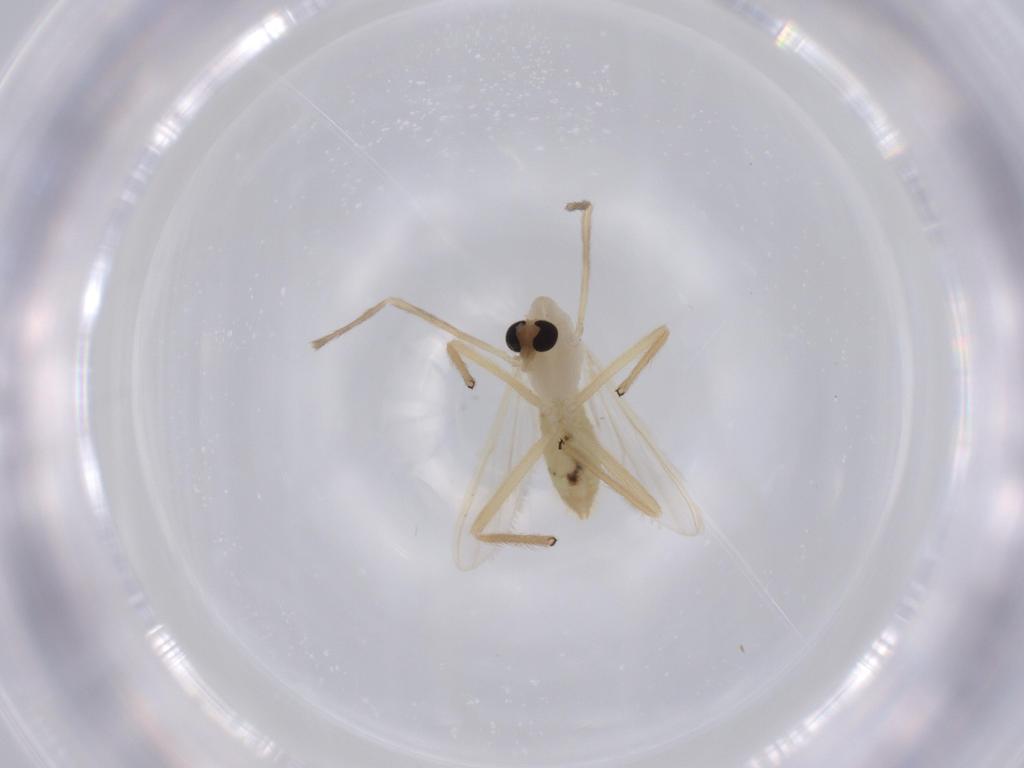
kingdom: Animalia
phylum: Arthropoda
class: Insecta
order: Diptera
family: Chironomidae
